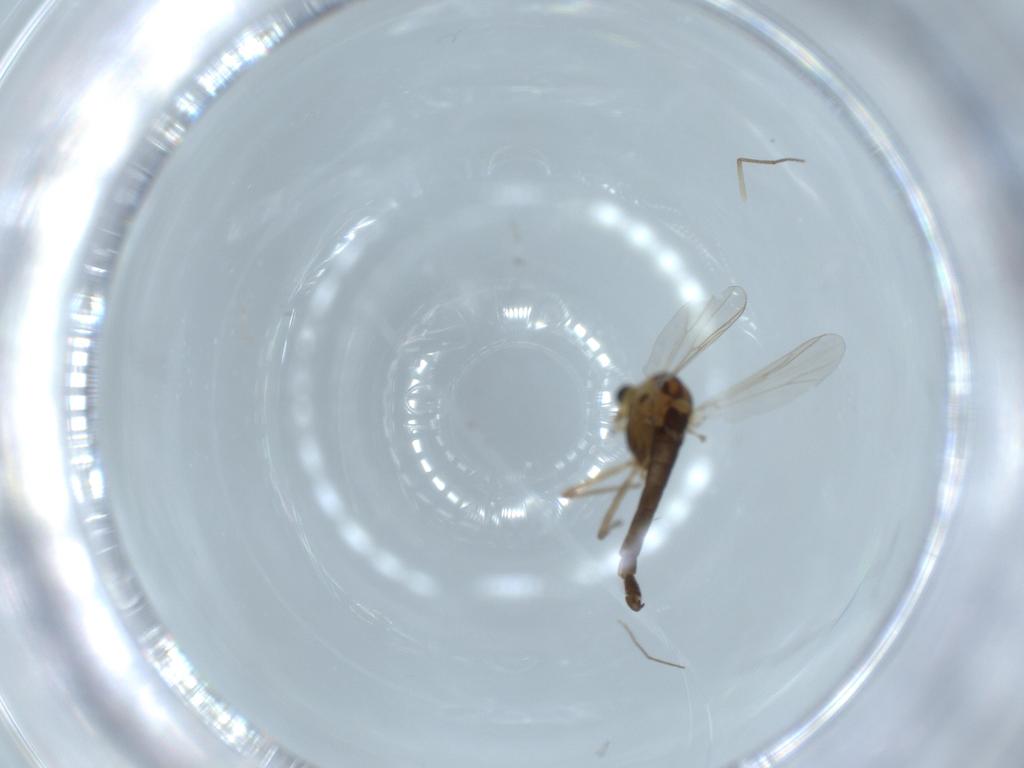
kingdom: Animalia
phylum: Arthropoda
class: Insecta
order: Diptera
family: Chironomidae
